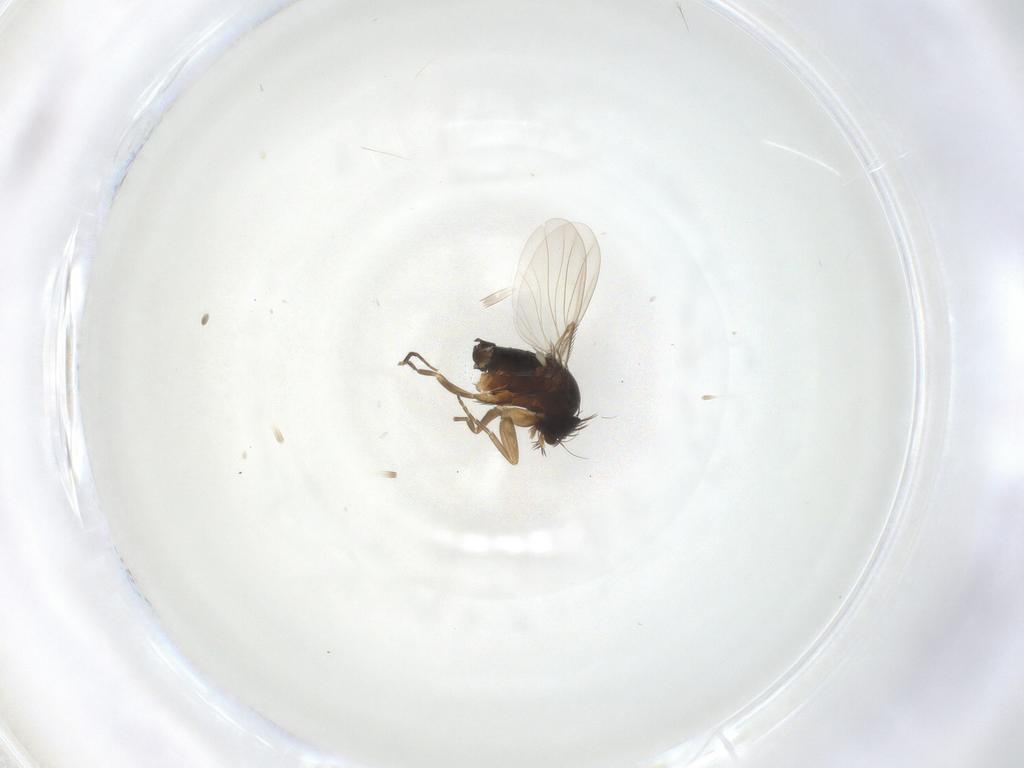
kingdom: Animalia
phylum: Arthropoda
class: Insecta
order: Diptera
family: Phoridae
